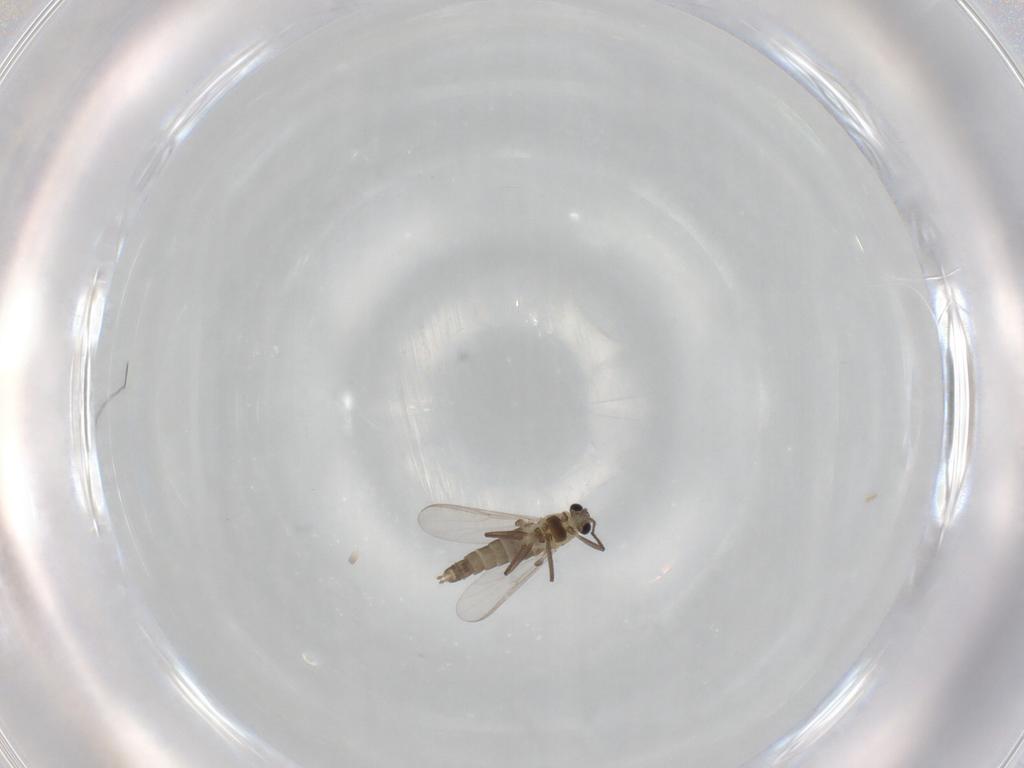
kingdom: Animalia
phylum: Arthropoda
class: Insecta
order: Diptera
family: Chironomidae
